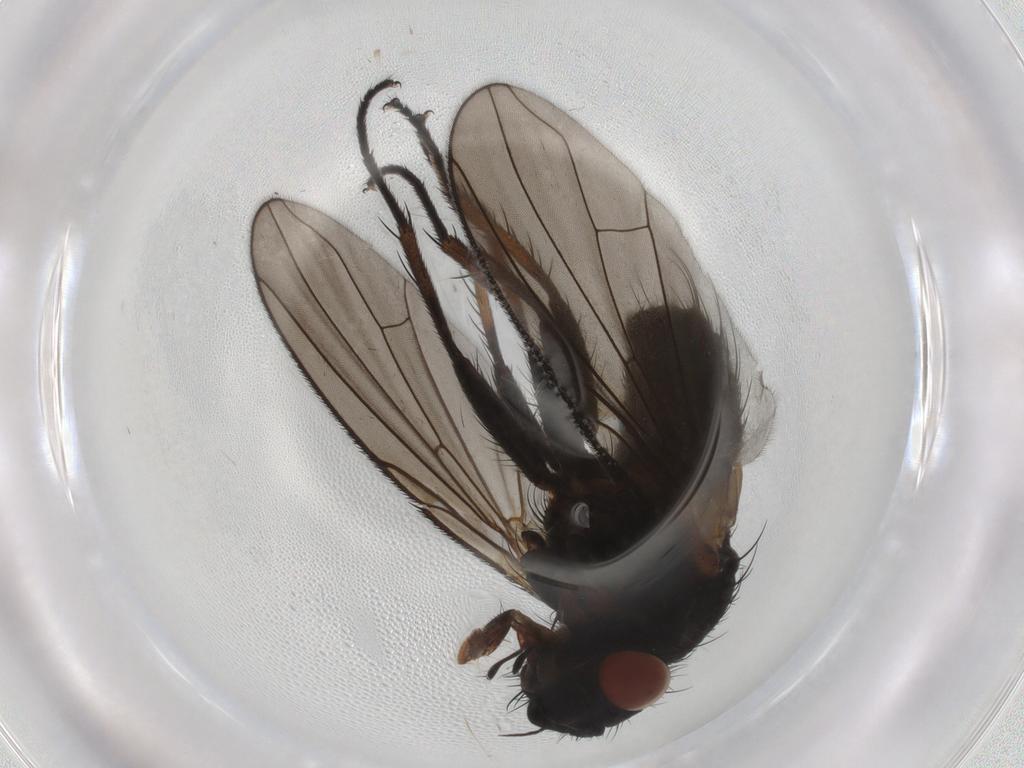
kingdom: Animalia
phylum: Arthropoda
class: Insecta
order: Diptera
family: Tachinidae
